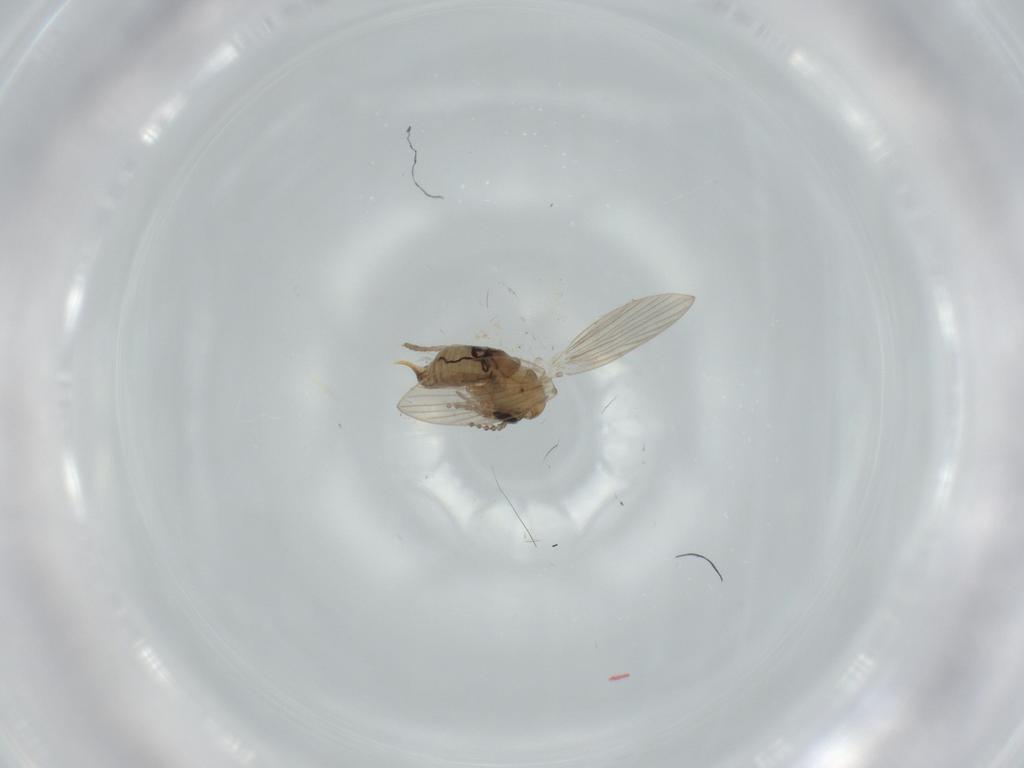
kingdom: Animalia
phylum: Arthropoda
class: Insecta
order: Diptera
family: Psychodidae
